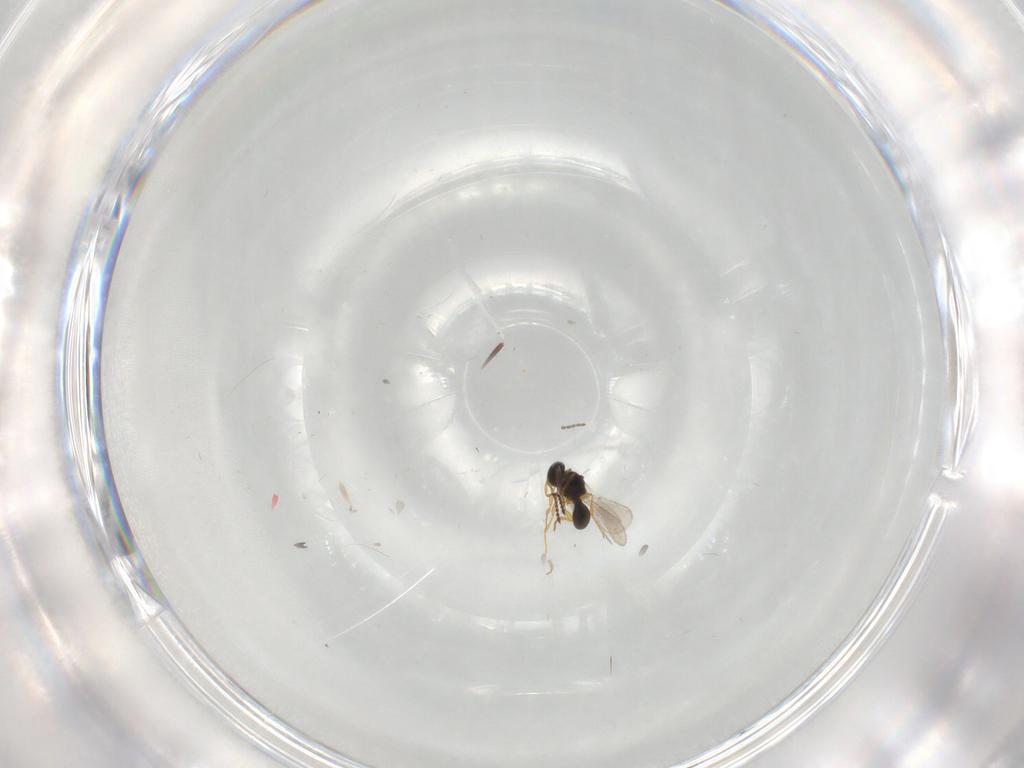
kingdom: Animalia
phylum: Arthropoda
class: Insecta
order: Hymenoptera
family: Platygastridae
